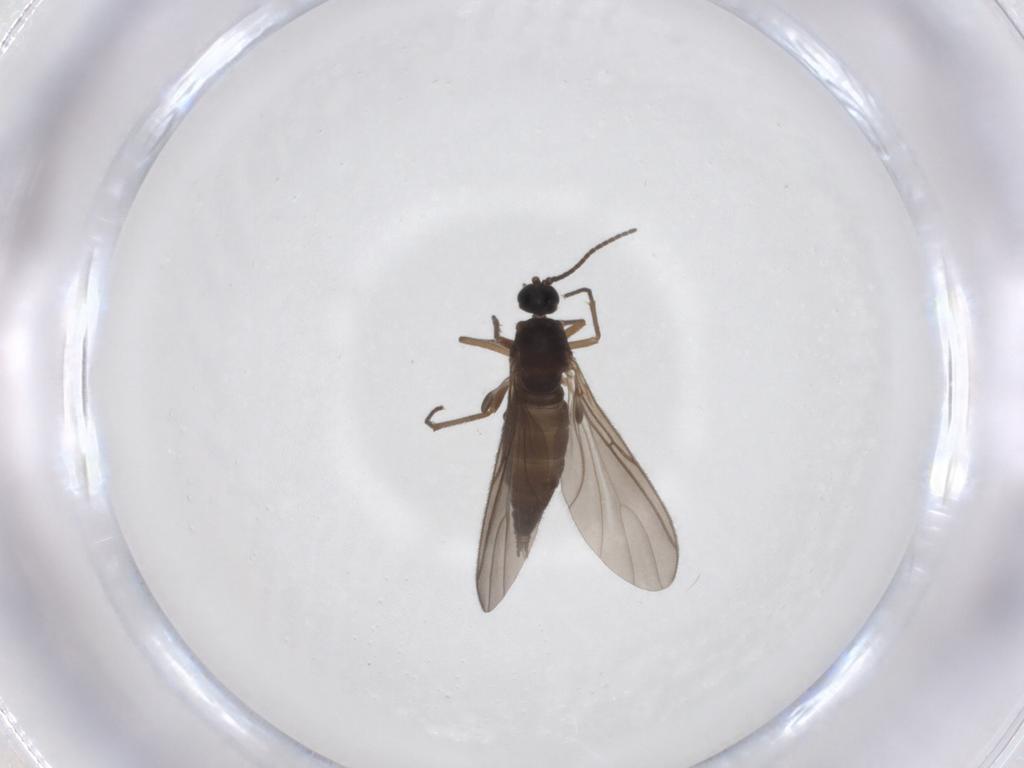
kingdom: Animalia
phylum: Arthropoda
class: Insecta
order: Diptera
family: Sciaridae
